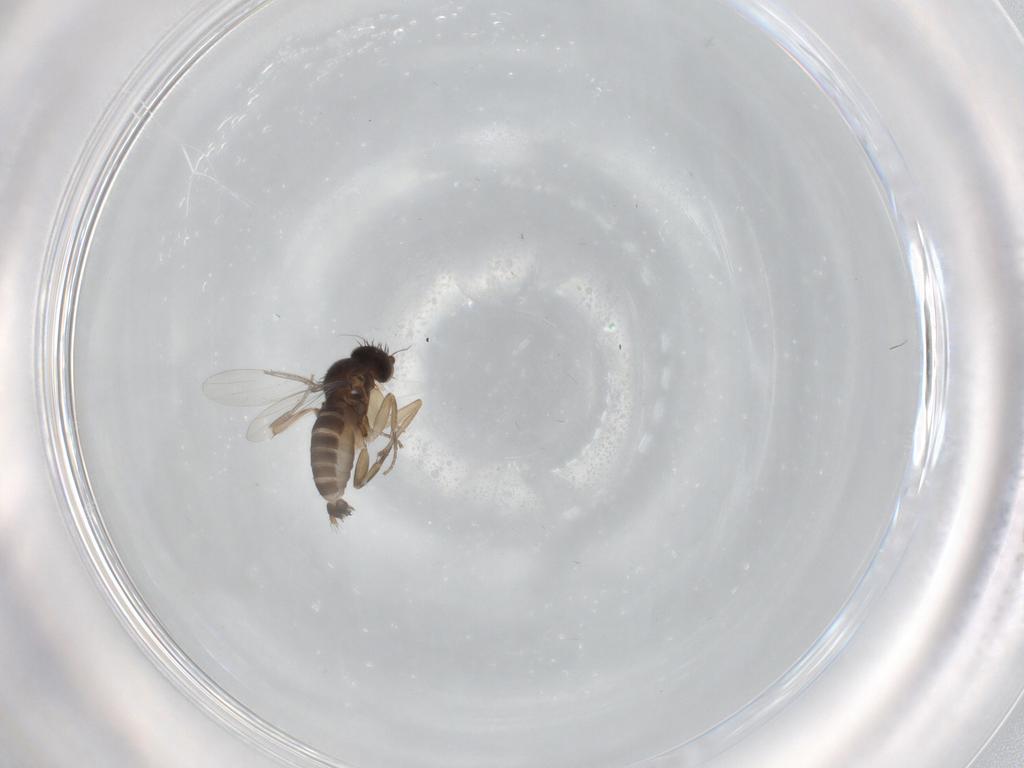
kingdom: Animalia
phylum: Arthropoda
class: Insecta
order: Diptera
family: Phoridae
